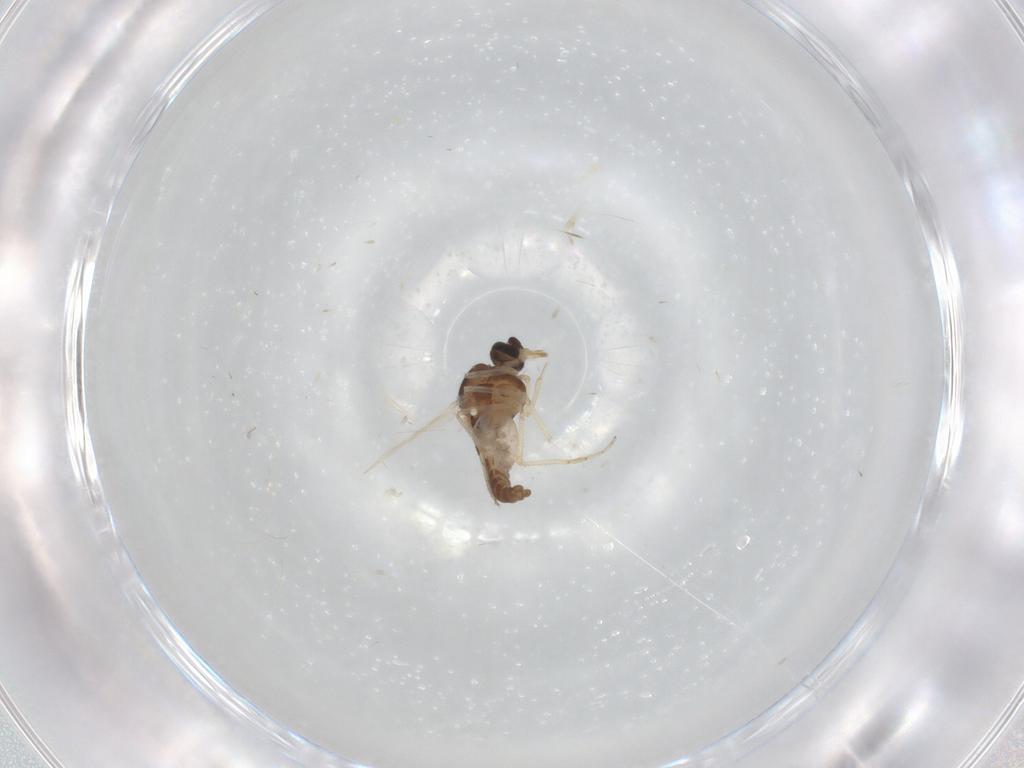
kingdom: Animalia
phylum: Arthropoda
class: Insecta
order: Diptera
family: Ceratopogonidae
